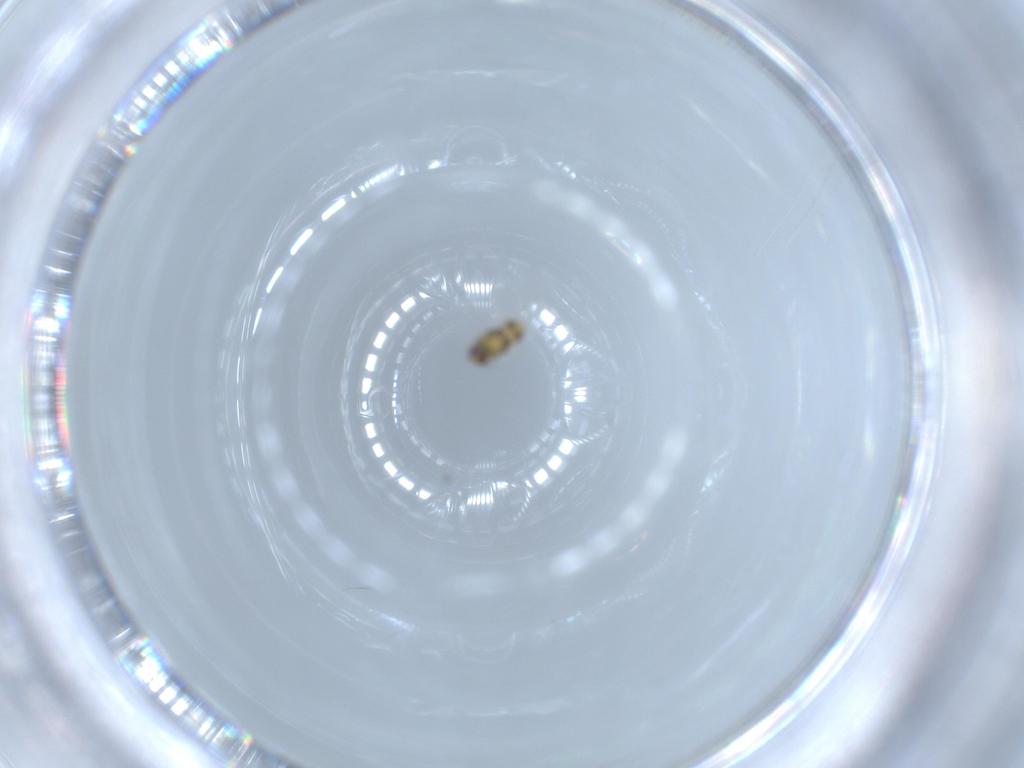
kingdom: Animalia
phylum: Arthropoda
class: Insecta
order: Hymenoptera
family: Aphelinidae
